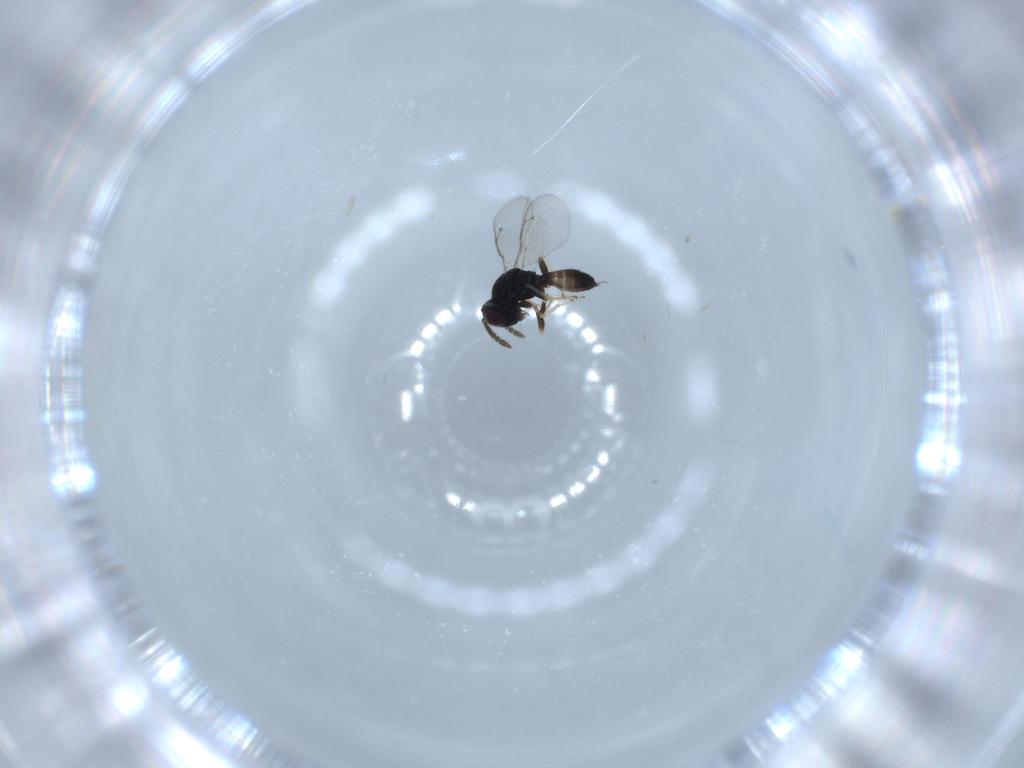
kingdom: Animalia
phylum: Arthropoda
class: Insecta
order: Hymenoptera
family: Pteromalidae
